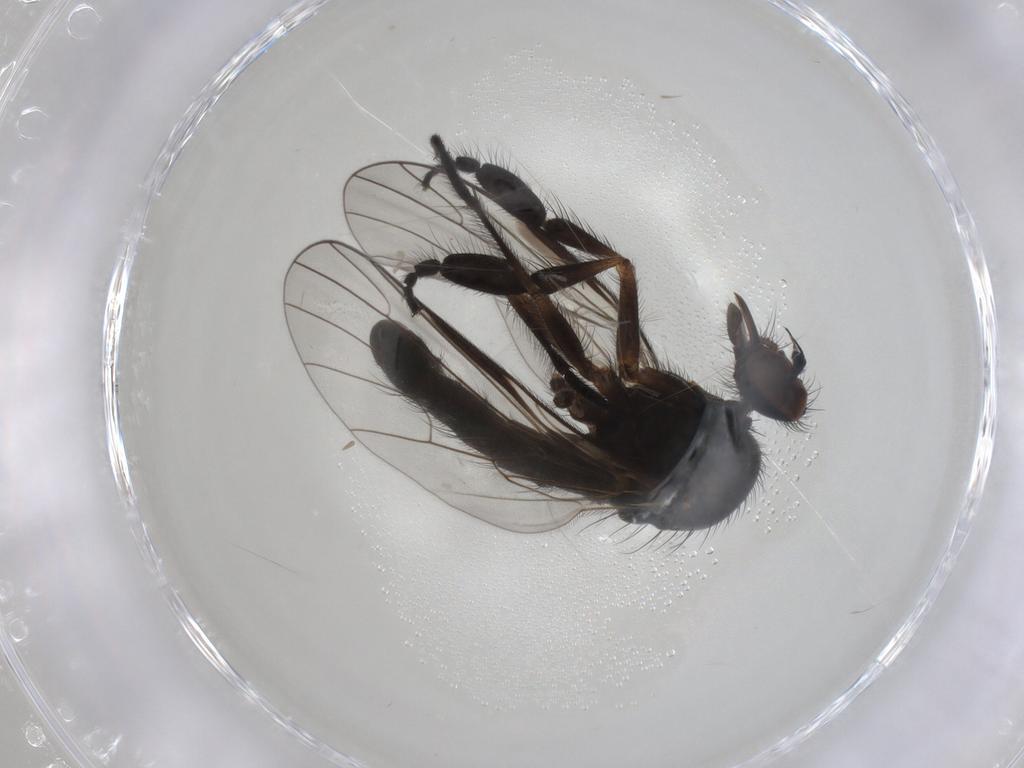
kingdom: Animalia
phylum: Arthropoda
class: Insecta
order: Diptera
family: Empididae
